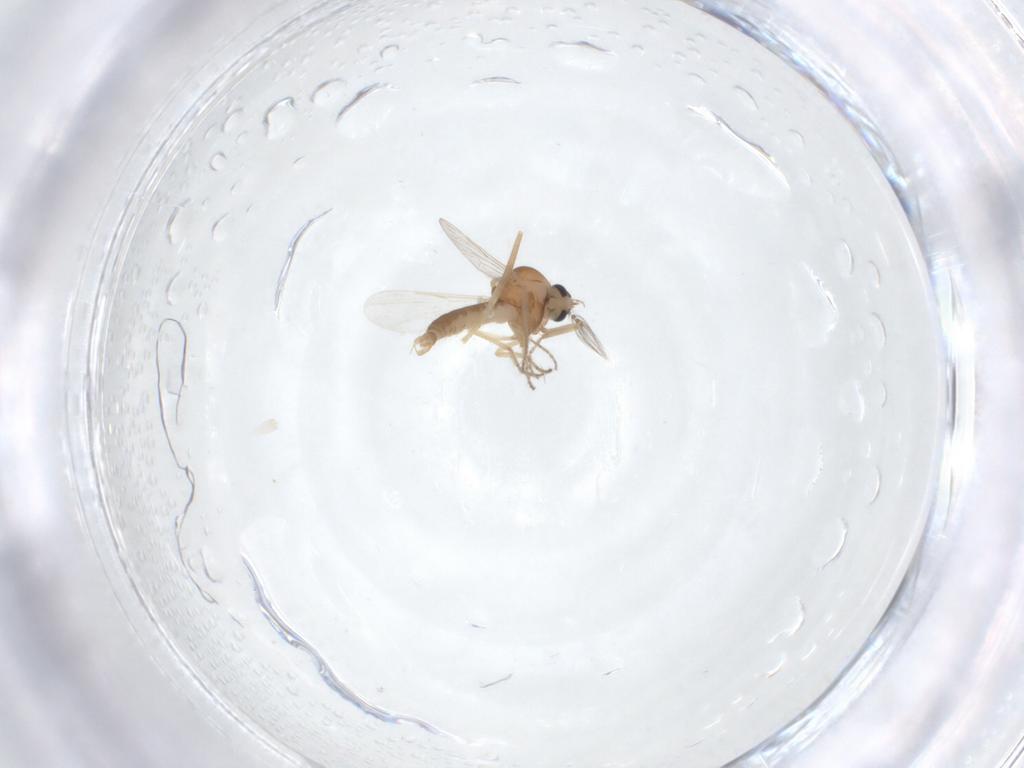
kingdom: Animalia
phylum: Arthropoda
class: Insecta
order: Diptera
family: Ceratopogonidae
